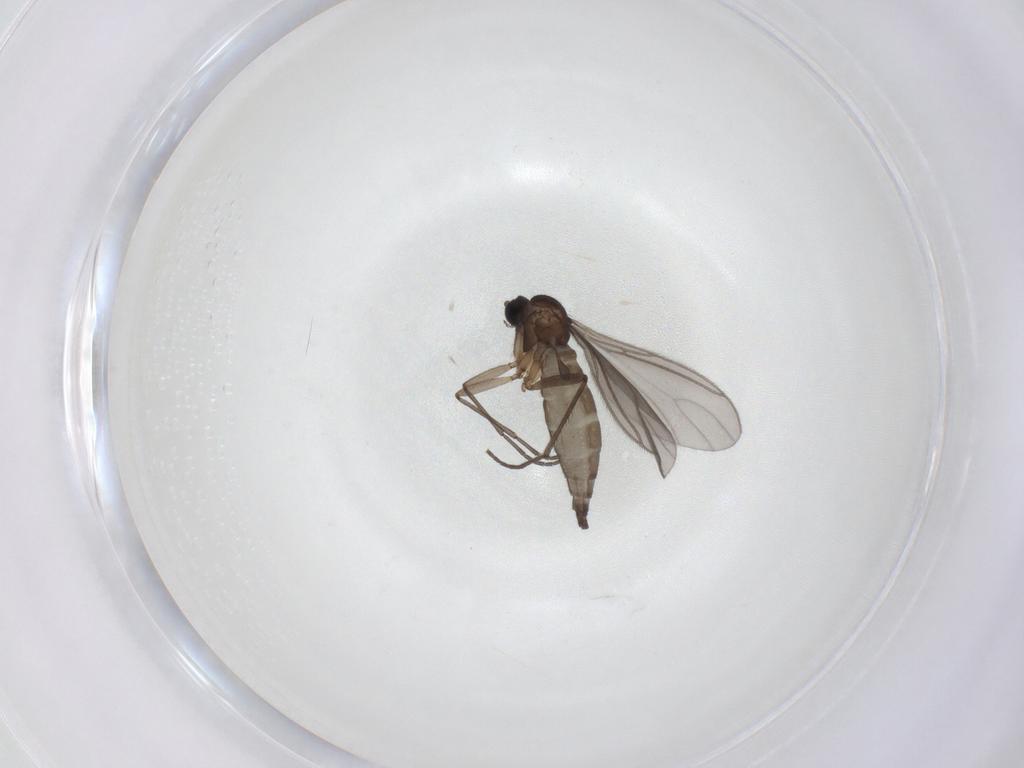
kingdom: Animalia
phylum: Arthropoda
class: Insecta
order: Diptera
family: Sciaridae
